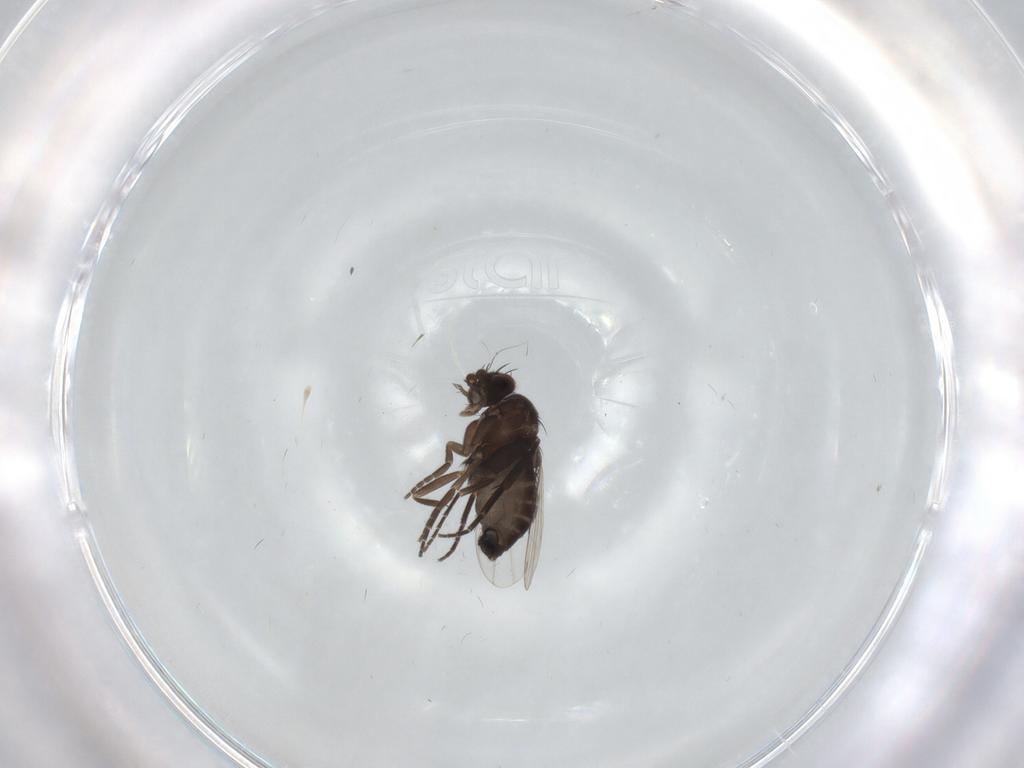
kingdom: Animalia
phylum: Arthropoda
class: Insecta
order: Diptera
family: Phoridae
